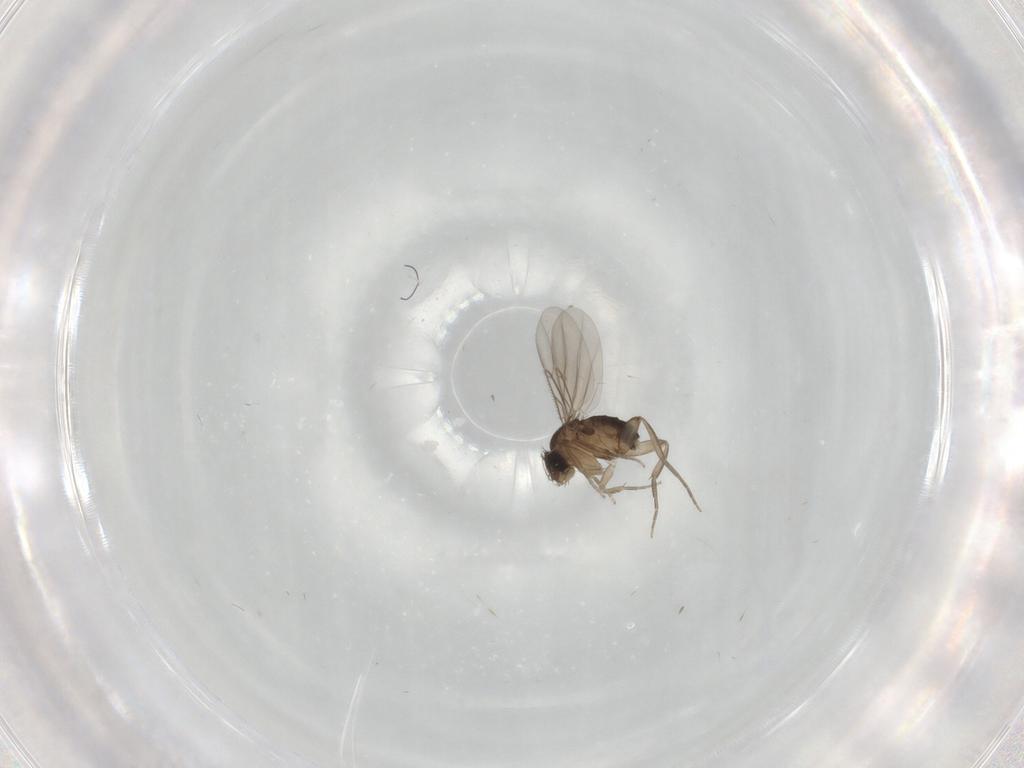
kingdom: Animalia
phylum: Arthropoda
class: Insecta
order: Diptera
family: Phoridae
